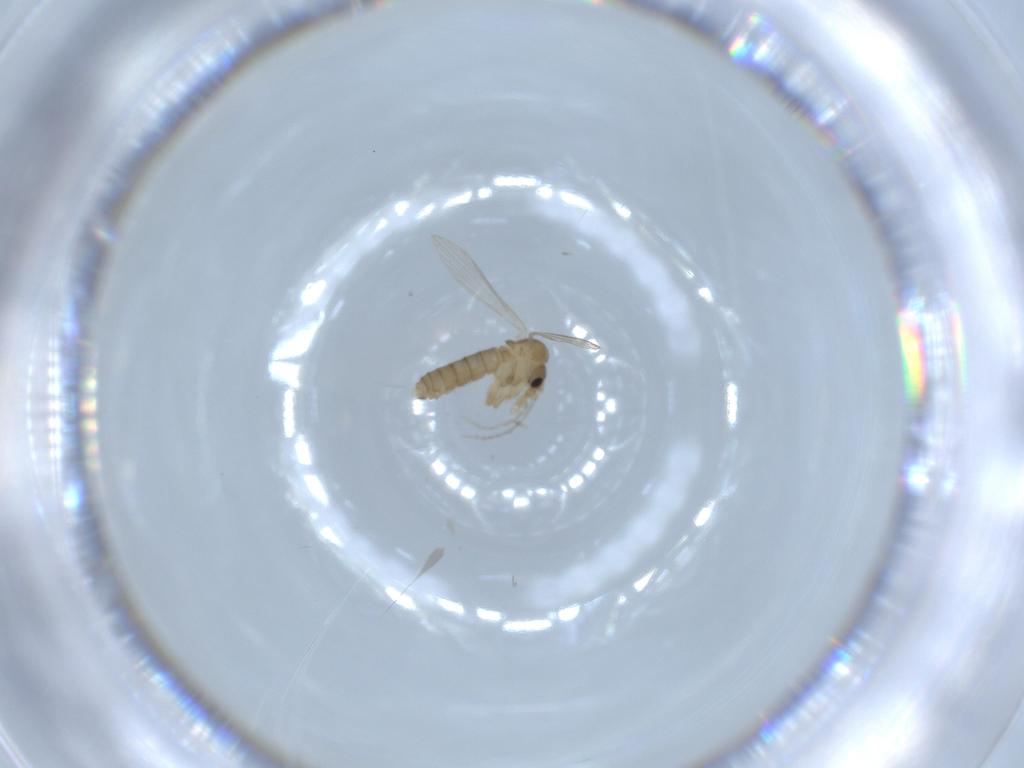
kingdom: Animalia
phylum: Arthropoda
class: Insecta
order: Diptera
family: Psychodidae
